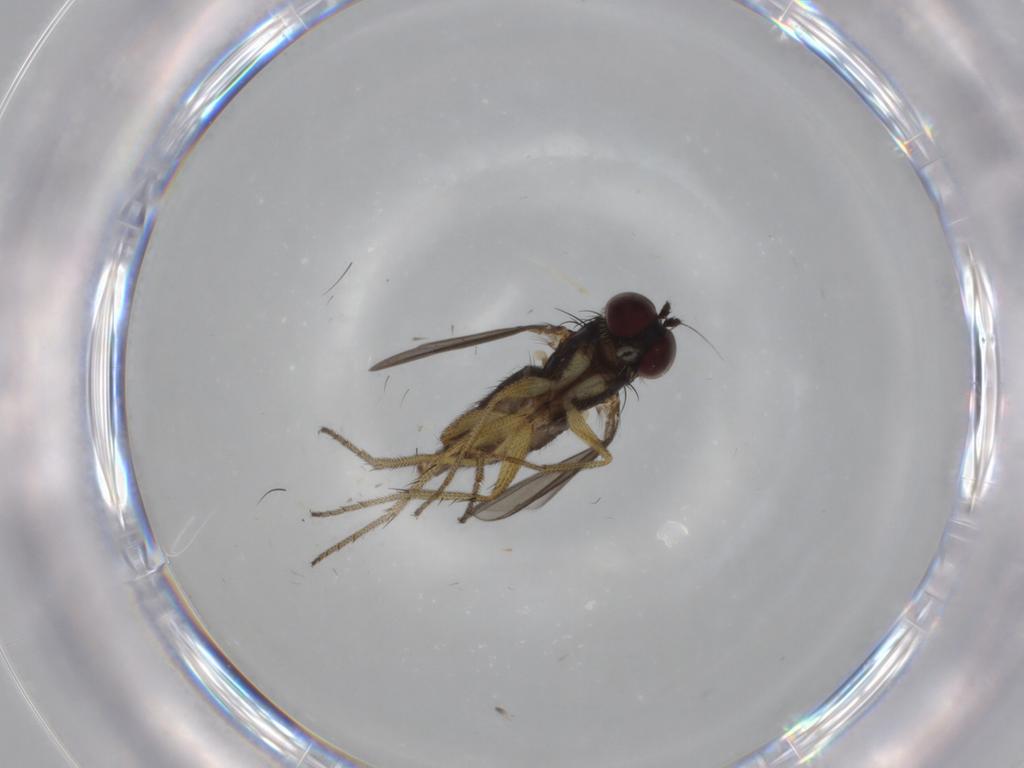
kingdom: Animalia
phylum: Arthropoda
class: Insecta
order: Diptera
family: Dolichopodidae
